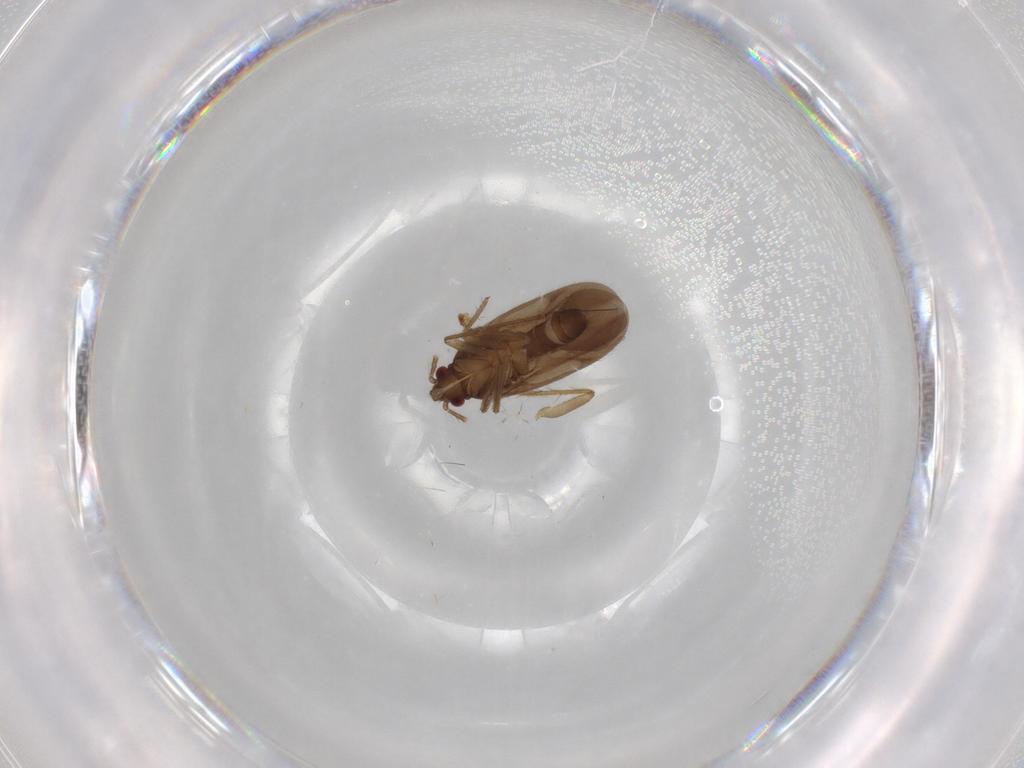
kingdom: Animalia
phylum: Arthropoda
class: Insecta
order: Hemiptera
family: Ceratocombidae
